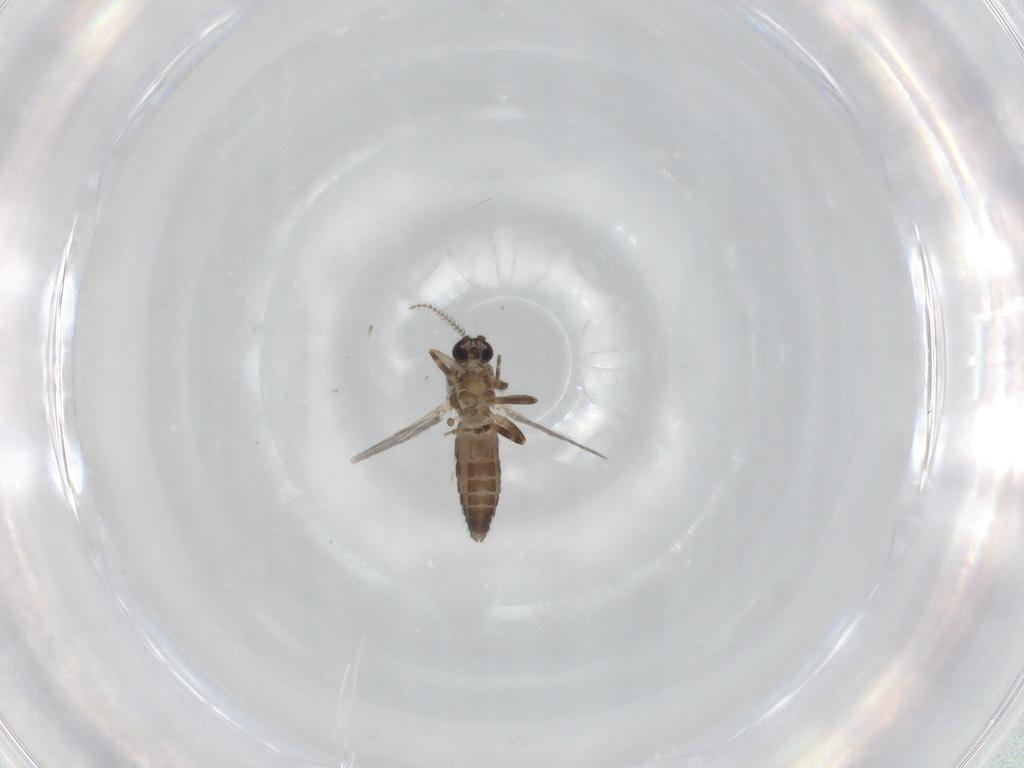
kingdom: Animalia
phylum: Arthropoda
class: Insecta
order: Diptera
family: Ceratopogonidae
